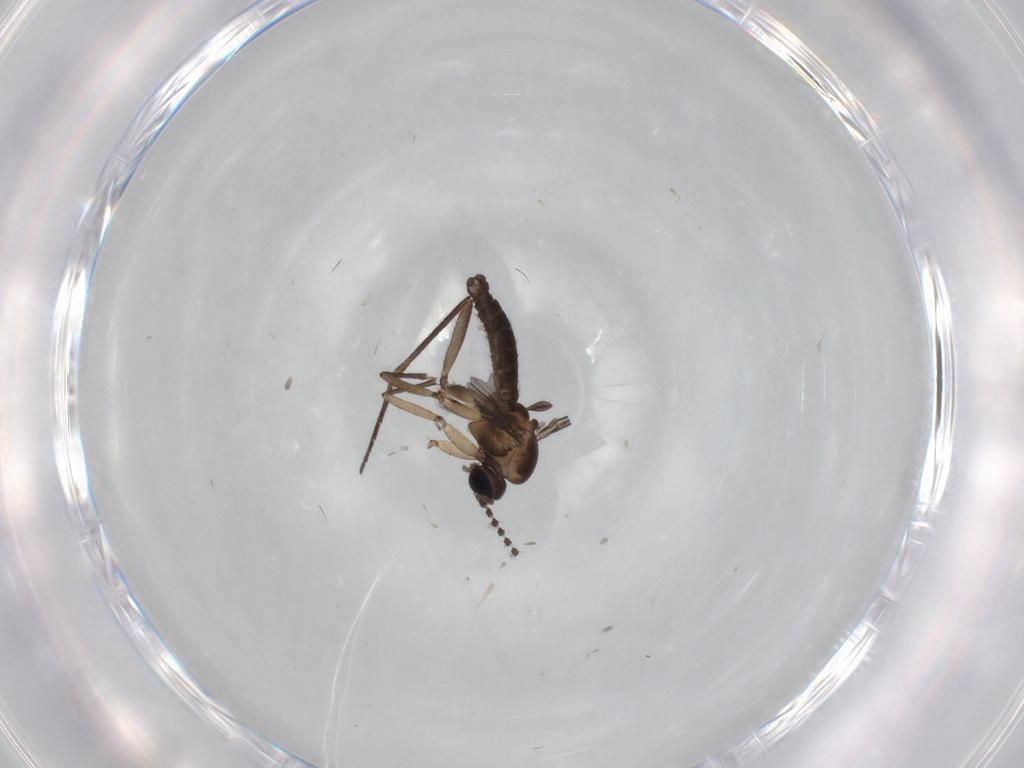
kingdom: Animalia
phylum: Arthropoda
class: Insecta
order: Diptera
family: Sciaridae
